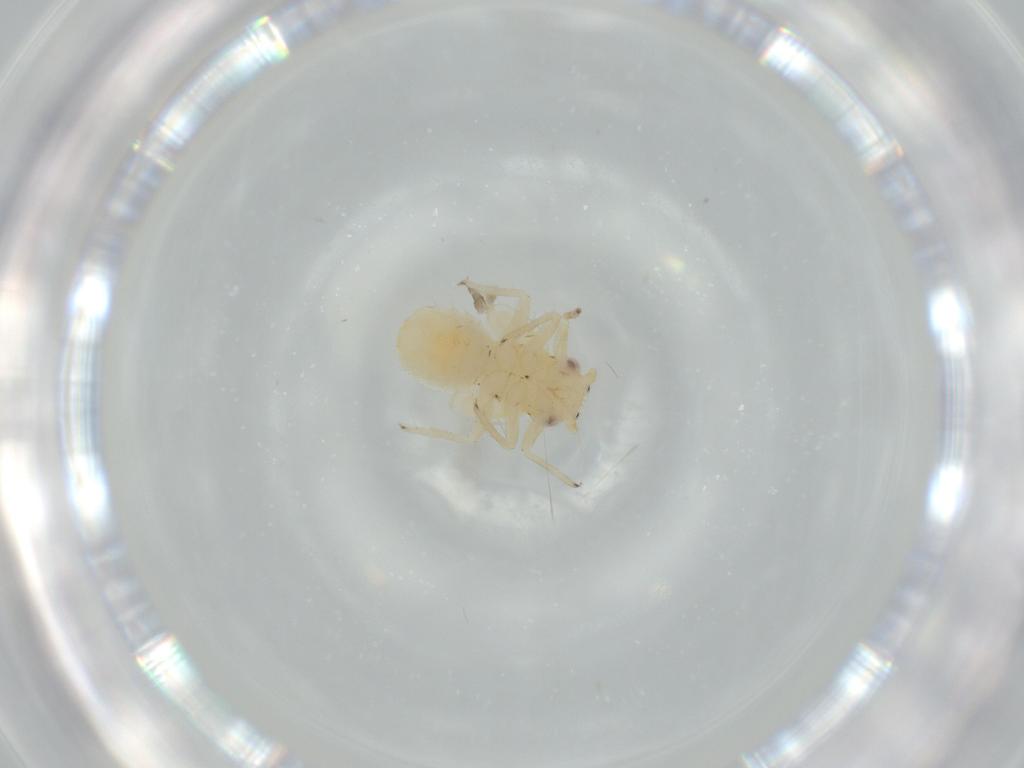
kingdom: Animalia
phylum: Arthropoda
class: Insecta
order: Hemiptera
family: Psyllidae
